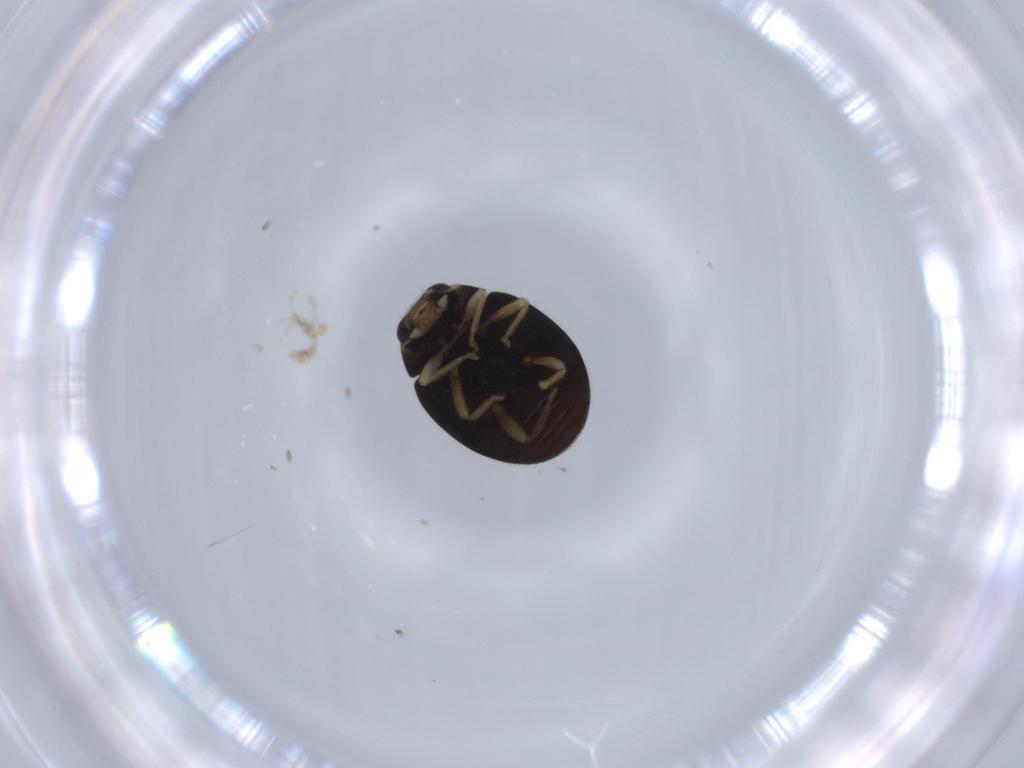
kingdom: Animalia
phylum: Arthropoda
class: Insecta
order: Coleoptera
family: Coccinellidae
